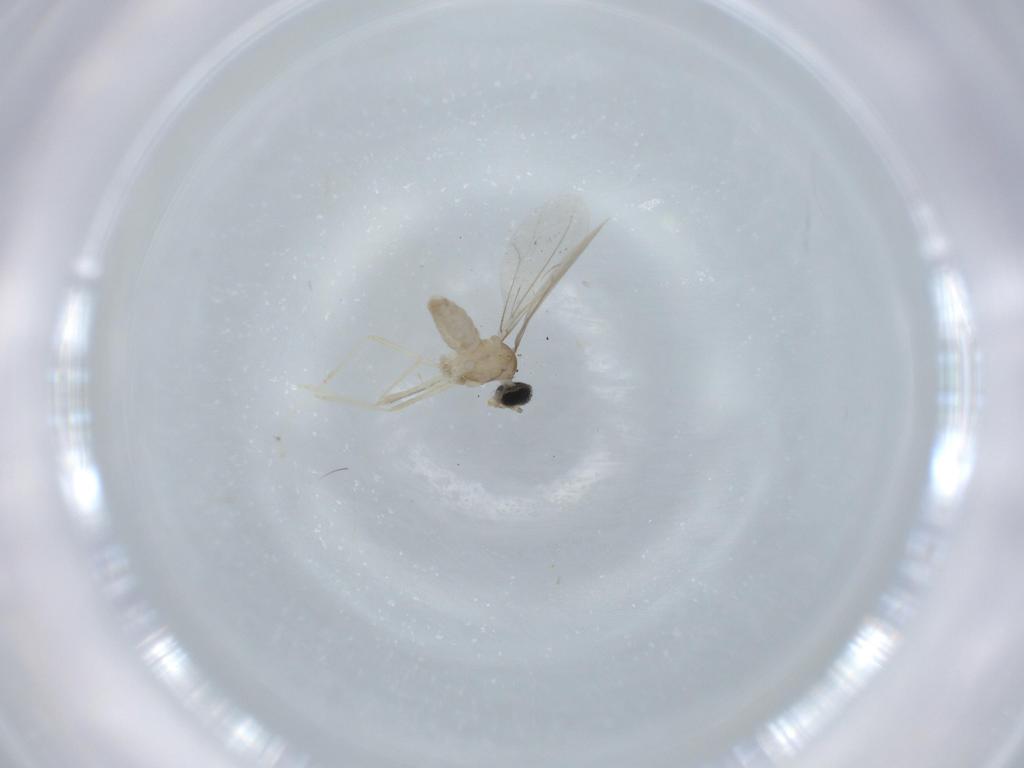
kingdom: Animalia
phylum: Arthropoda
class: Insecta
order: Diptera
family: Cecidomyiidae
